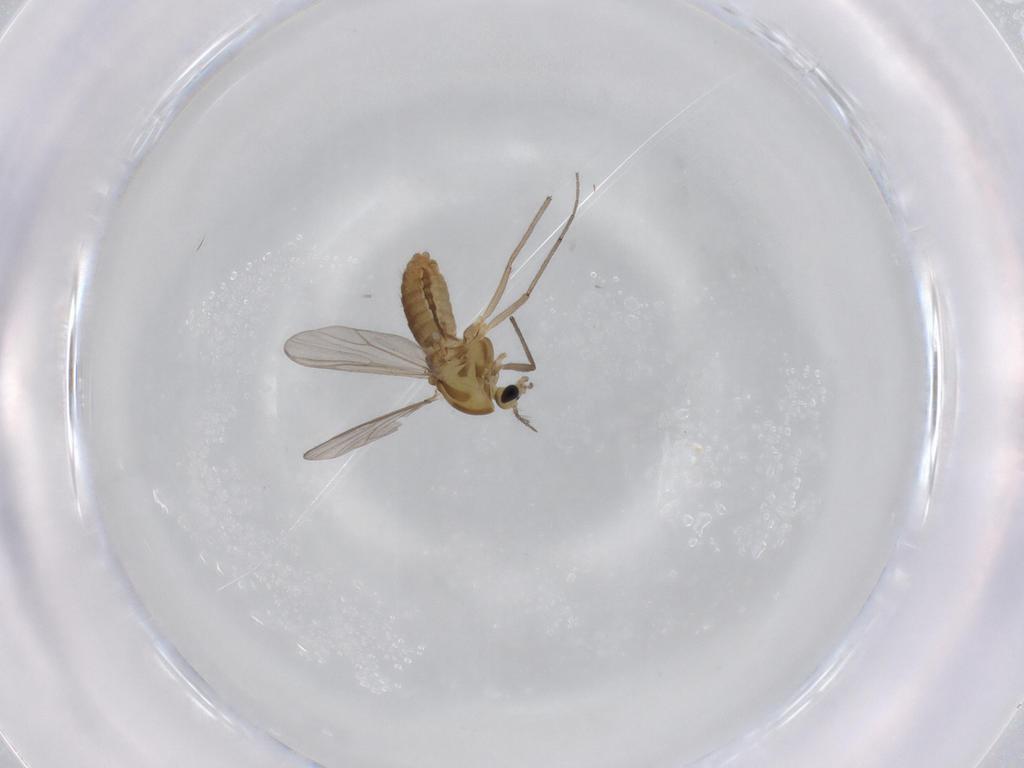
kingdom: Animalia
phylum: Arthropoda
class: Insecta
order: Diptera
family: Chironomidae
